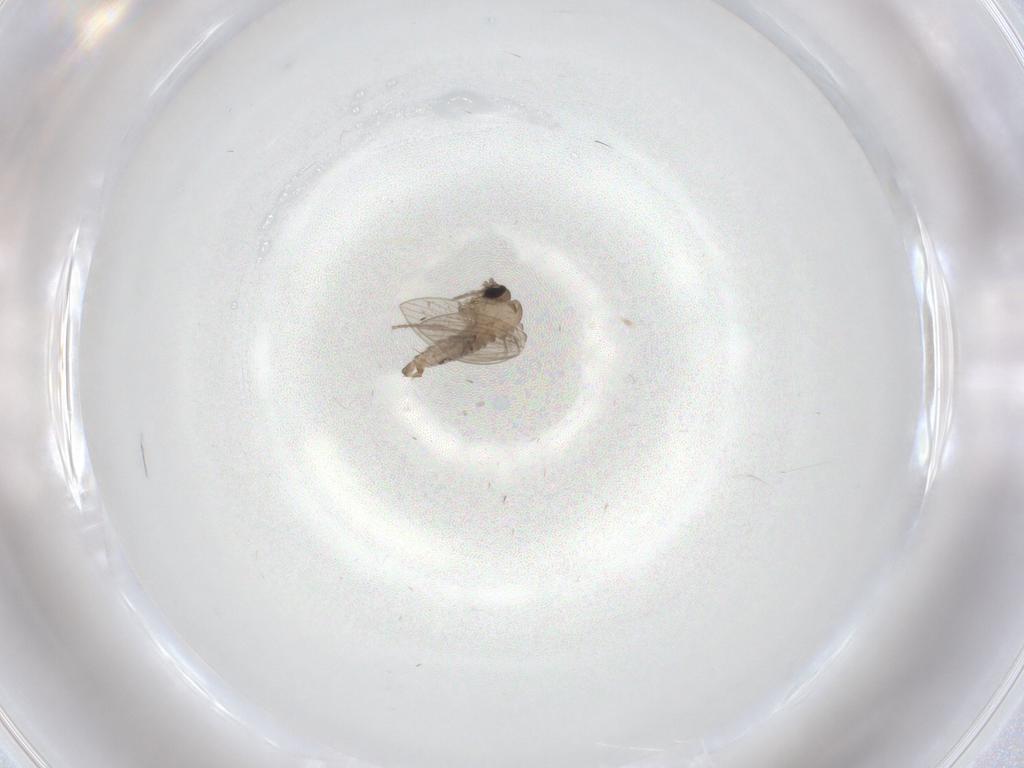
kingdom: Animalia
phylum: Arthropoda
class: Insecta
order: Diptera
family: Psychodidae
